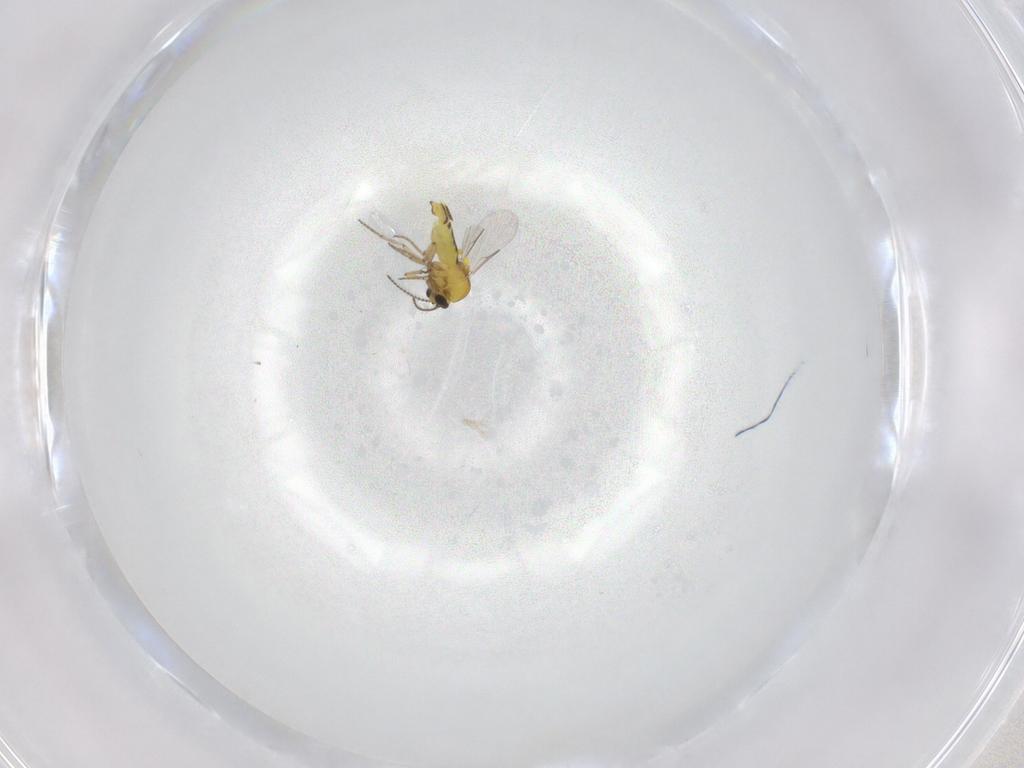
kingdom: Animalia
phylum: Arthropoda
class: Insecta
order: Diptera
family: Ceratopogonidae
